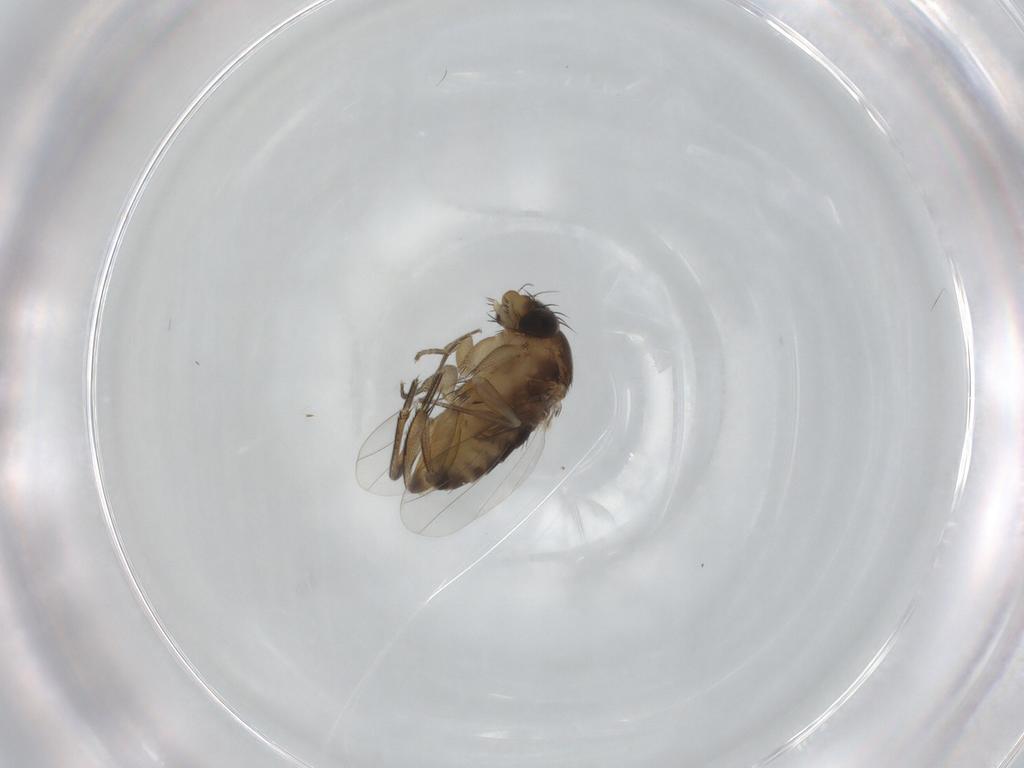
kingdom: Animalia
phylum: Arthropoda
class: Insecta
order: Diptera
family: Phoridae
